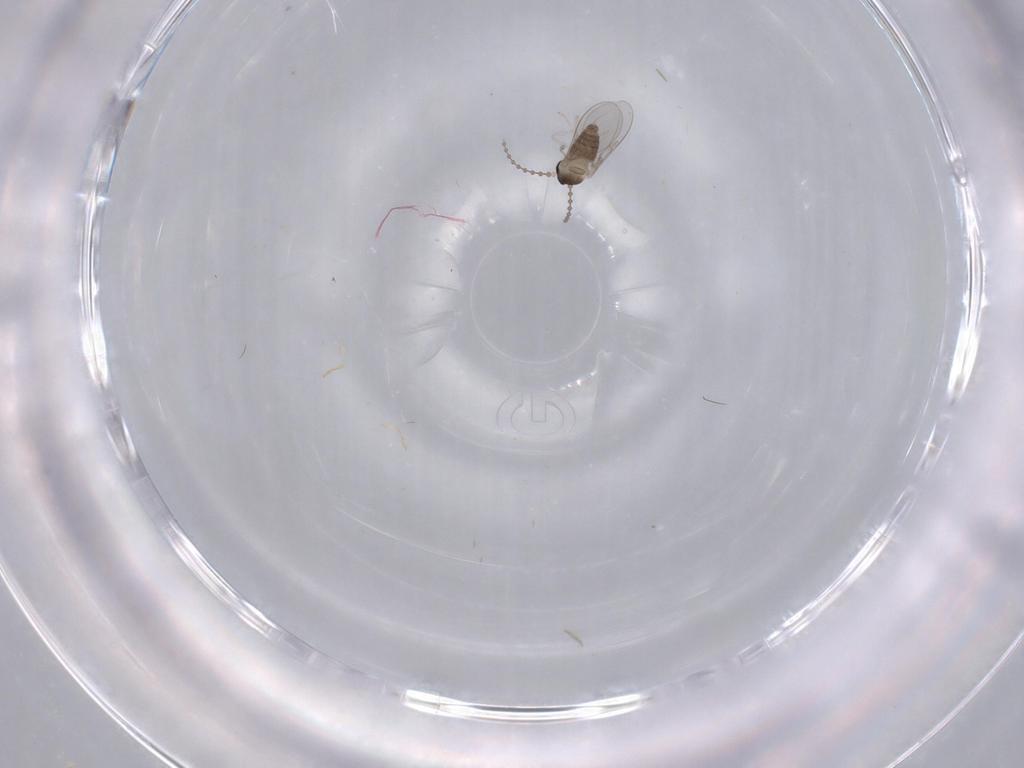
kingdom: Animalia
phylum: Arthropoda
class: Insecta
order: Diptera
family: Cecidomyiidae
